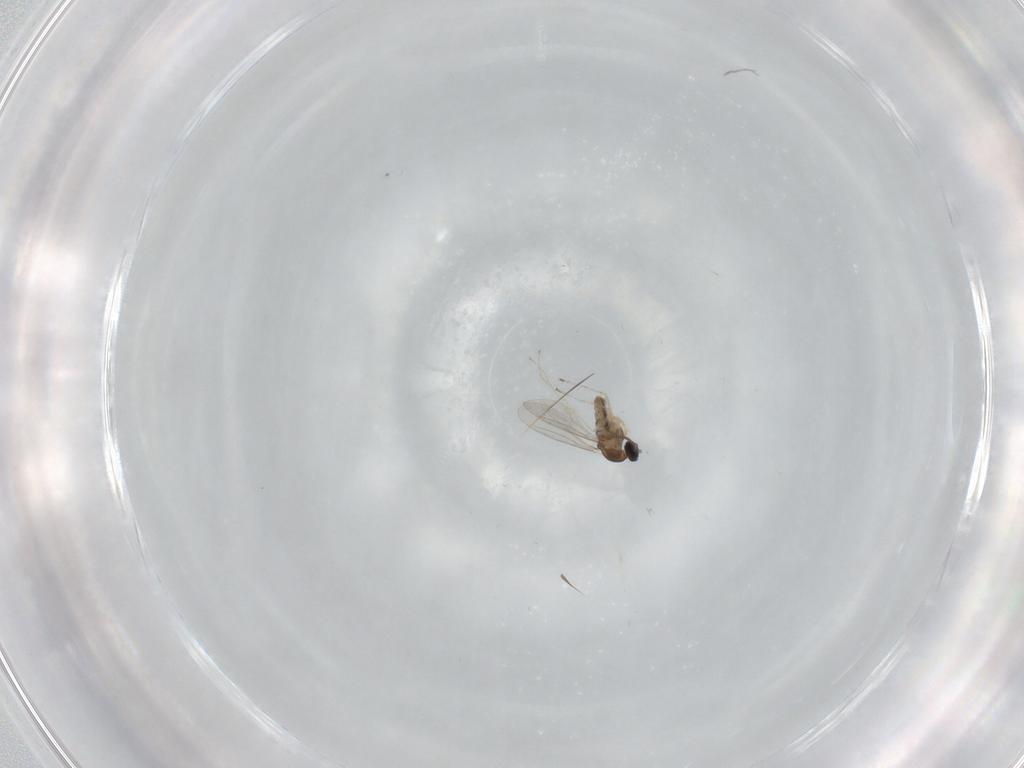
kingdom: Animalia
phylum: Arthropoda
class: Insecta
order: Diptera
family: Cecidomyiidae
